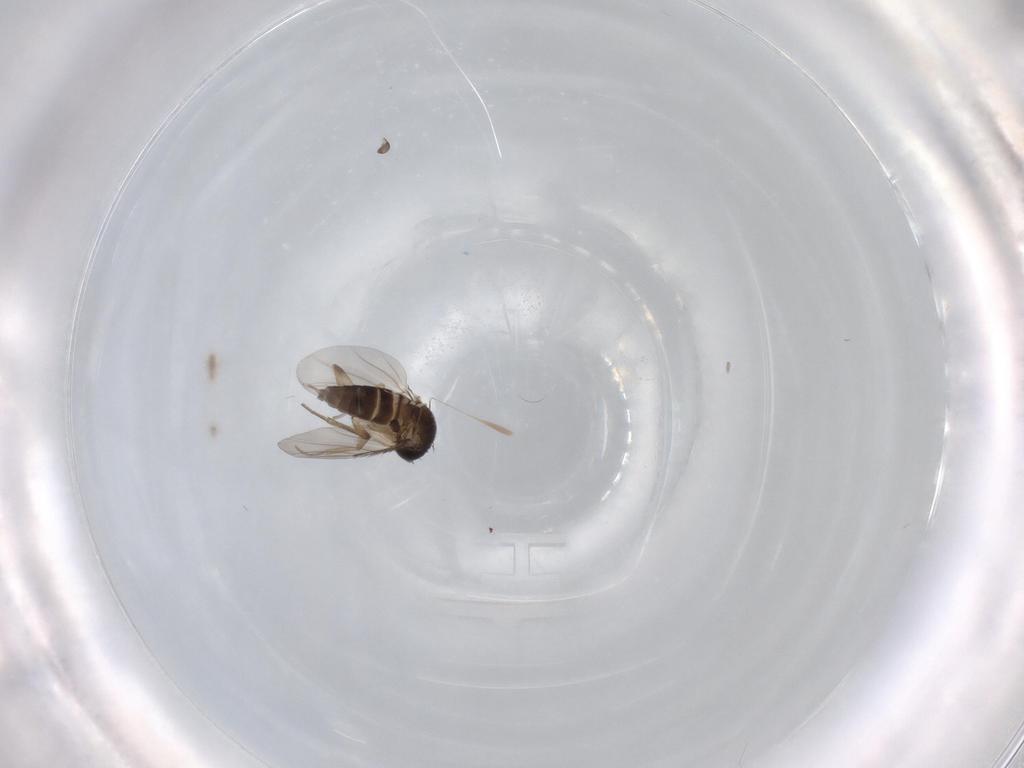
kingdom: Animalia
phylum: Arthropoda
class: Insecta
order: Diptera
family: Phoridae
